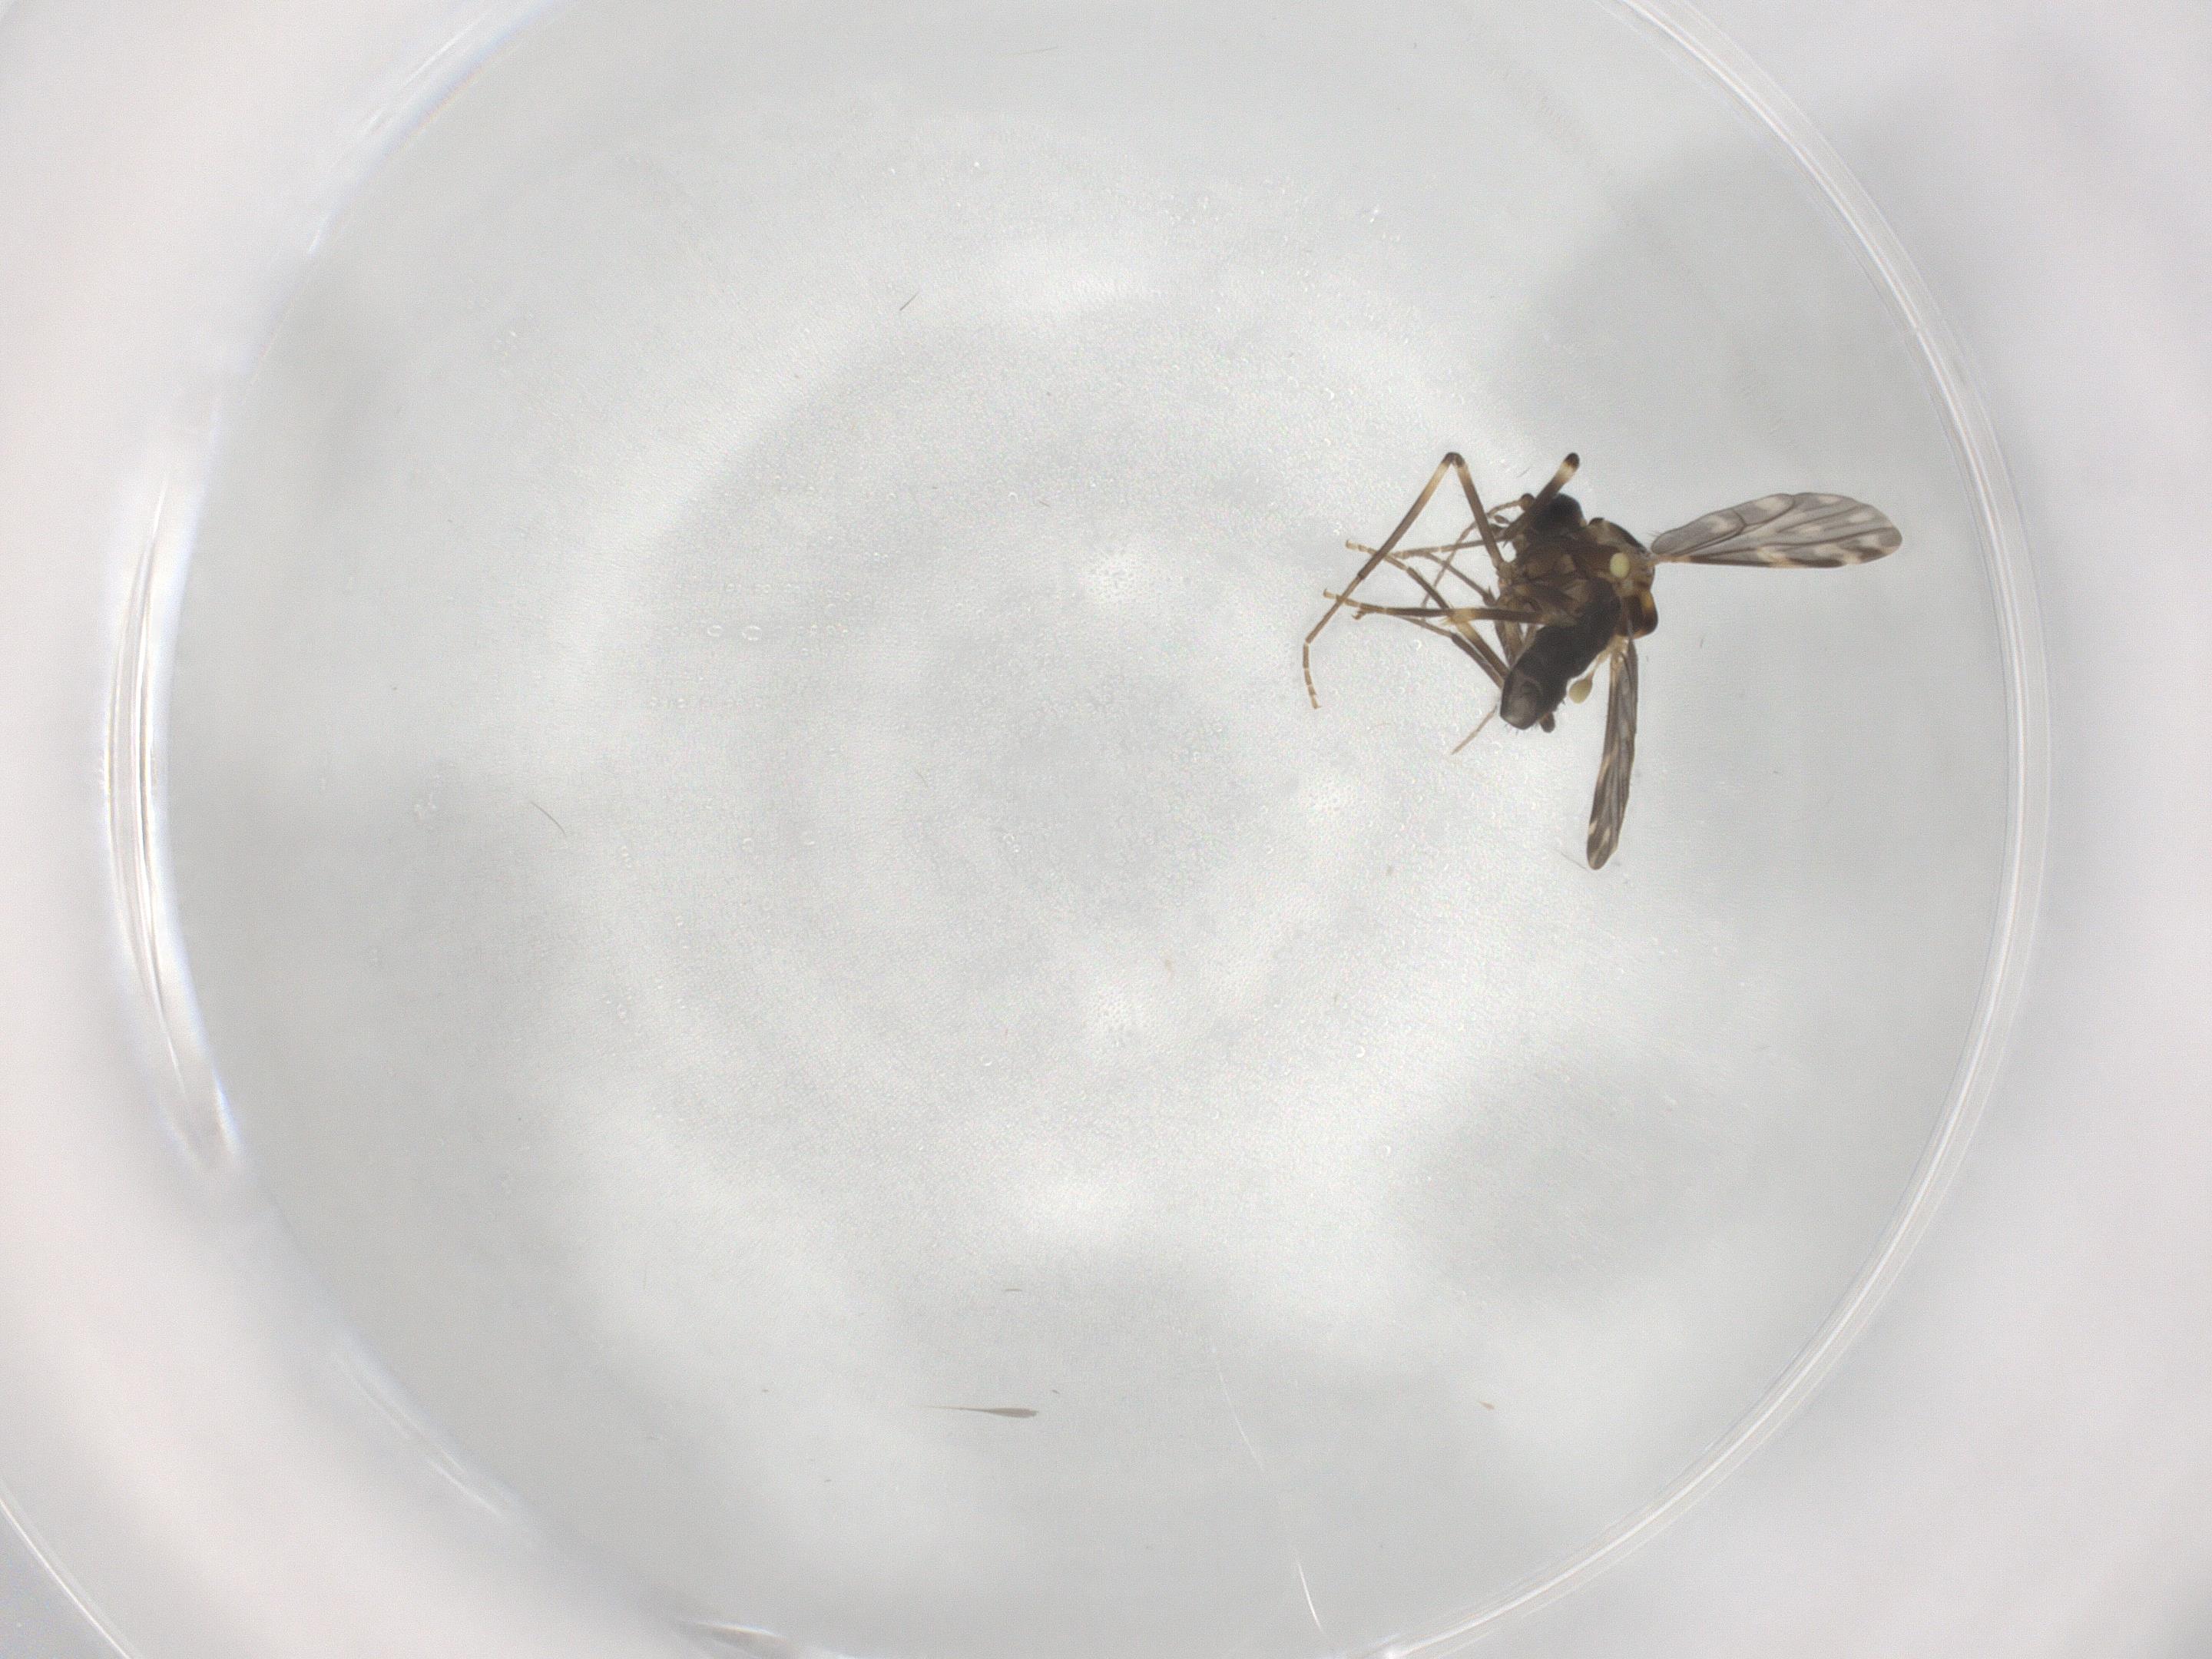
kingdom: Animalia
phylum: Arthropoda
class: Insecta
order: Diptera
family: Ceratopogonidae
